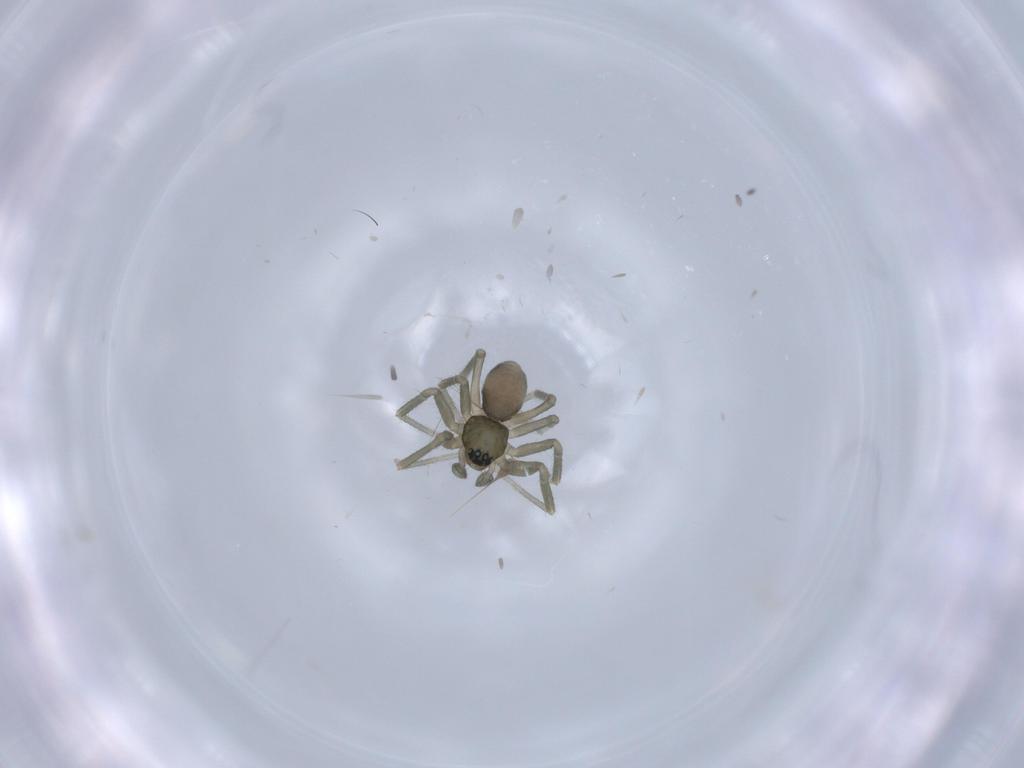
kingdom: Animalia
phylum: Arthropoda
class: Arachnida
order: Araneae
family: Linyphiidae
